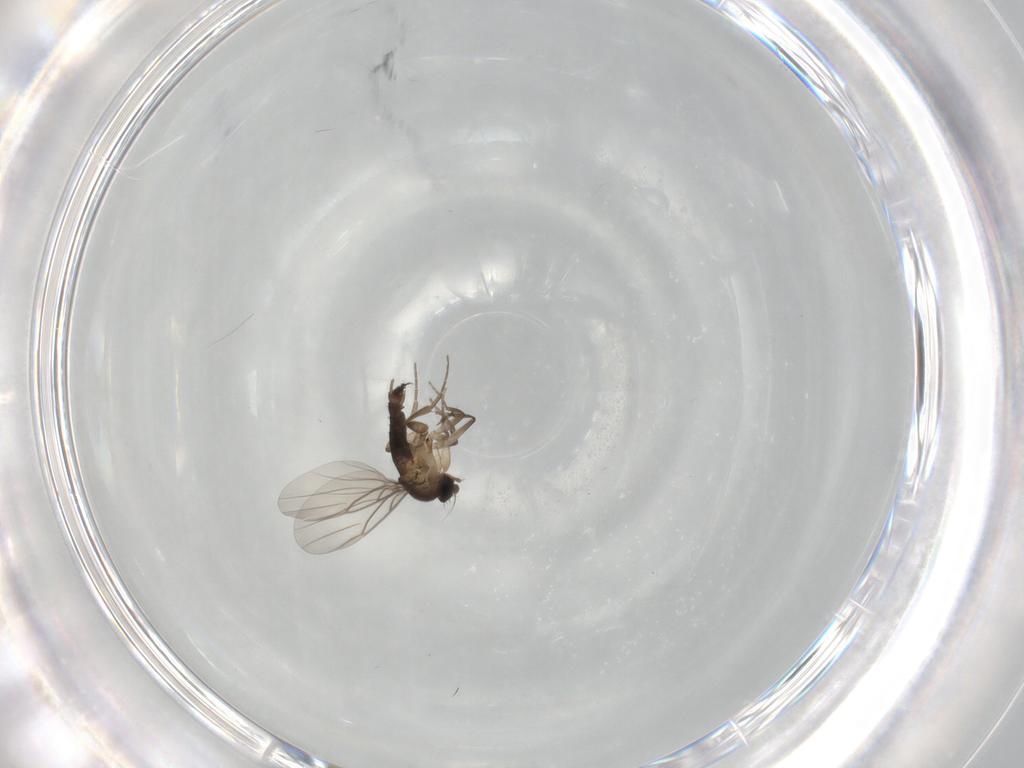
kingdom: Animalia
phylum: Arthropoda
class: Insecta
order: Diptera
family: Phoridae
